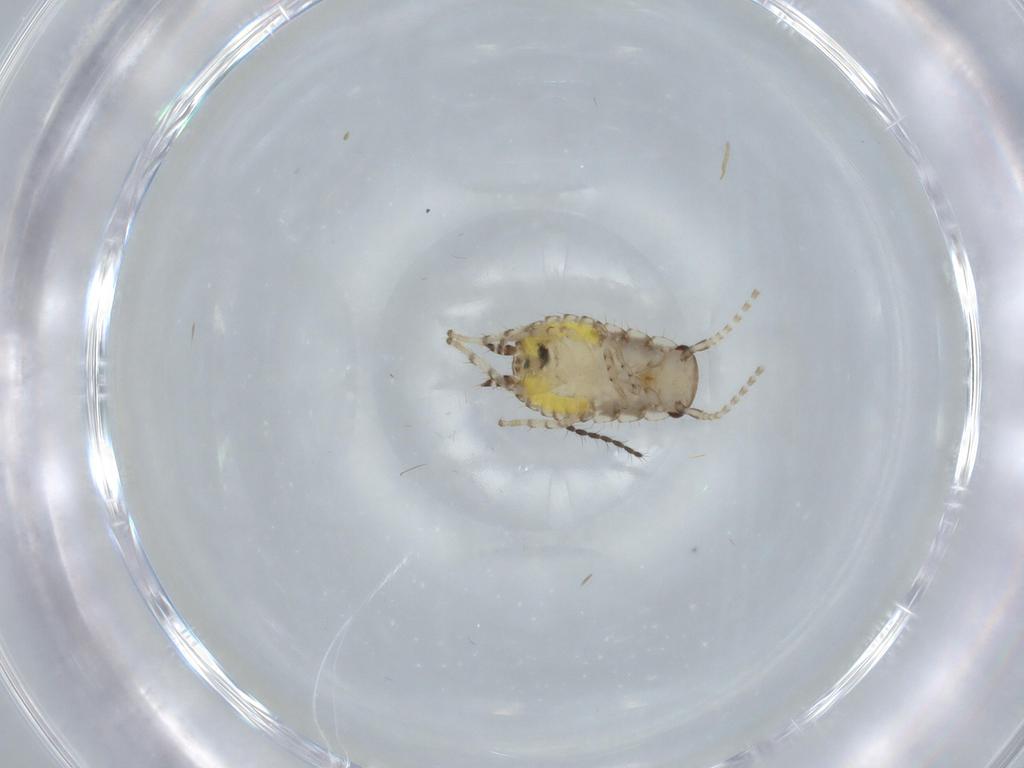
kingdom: Animalia
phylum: Arthropoda
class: Insecta
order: Blattodea
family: Ectobiidae
